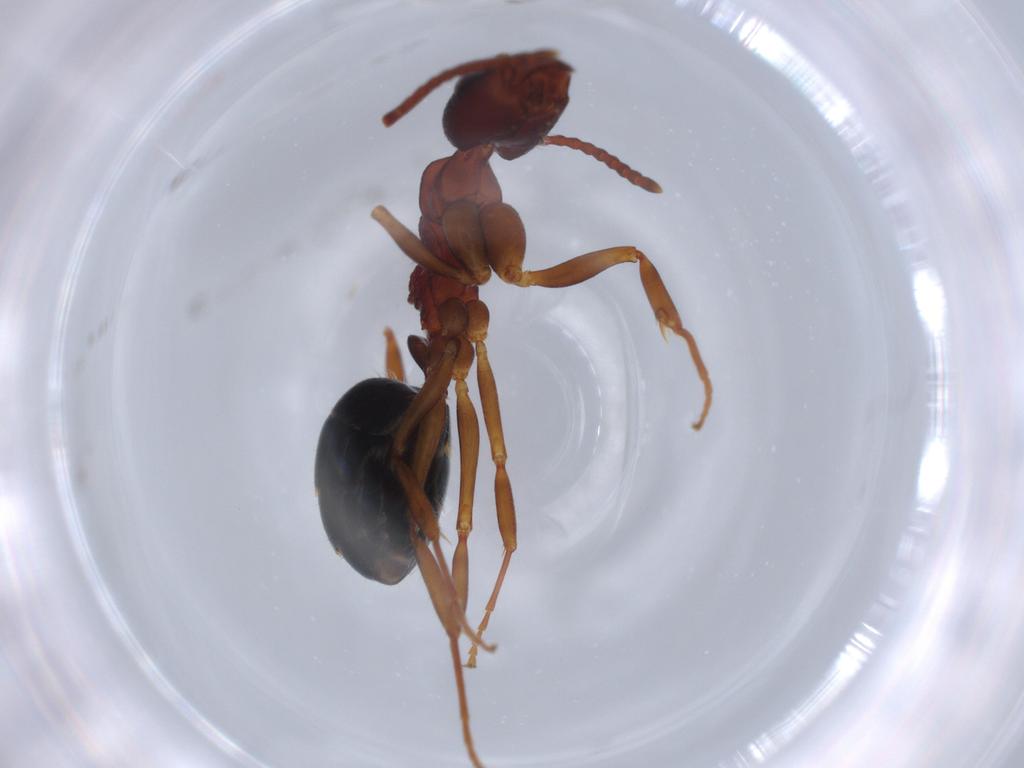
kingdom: Animalia
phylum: Arthropoda
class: Insecta
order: Hymenoptera
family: Formicidae
